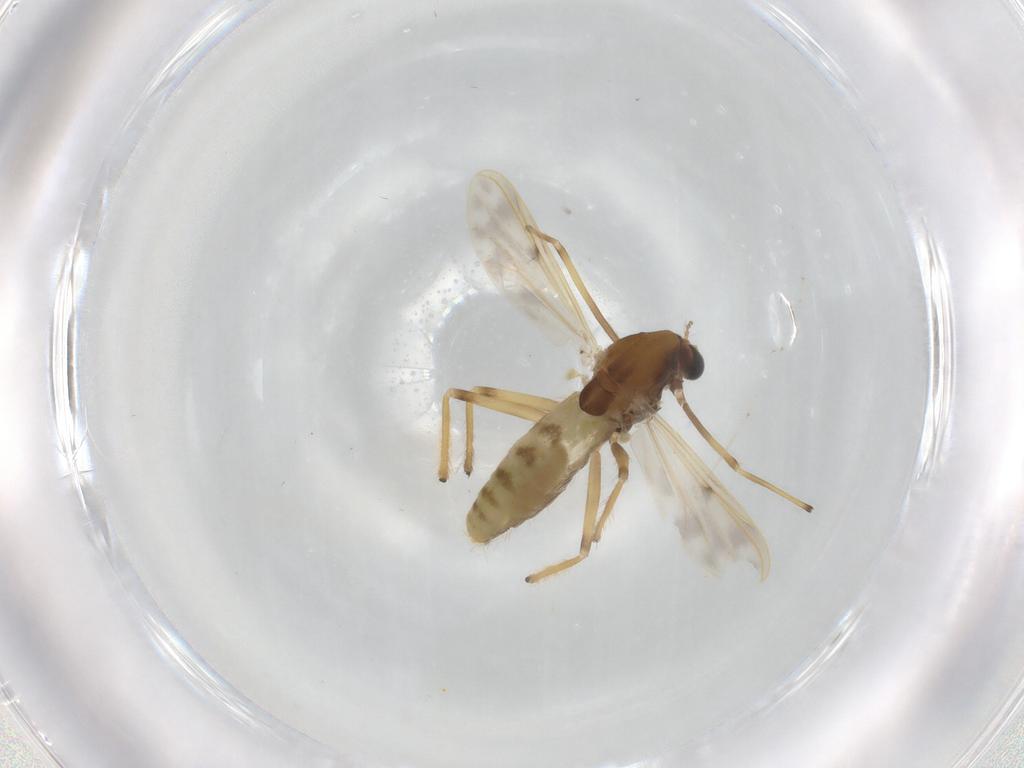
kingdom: Animalia
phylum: Arthropoda
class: Insecta
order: Diptera
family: Chironomidae
